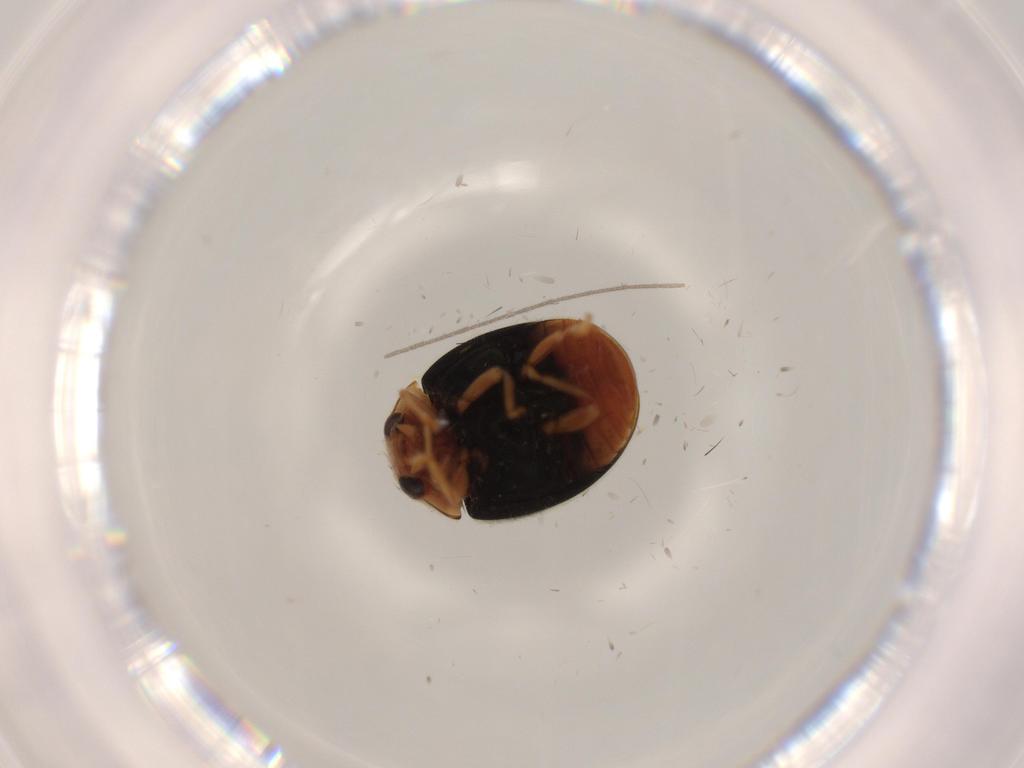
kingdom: Animalia
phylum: Arthropoda
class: Insecta
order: Coleoptera
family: Coccinellidae
